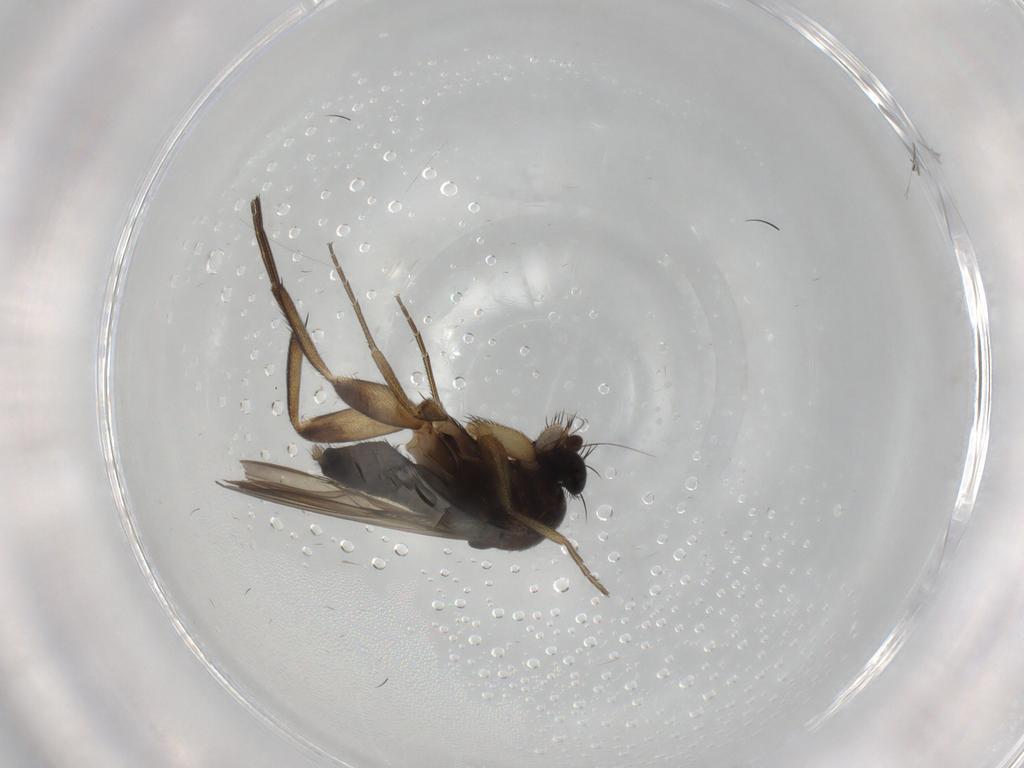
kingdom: Animalia
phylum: Arthropoda
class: Insecta
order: Diptera
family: Phoridae
